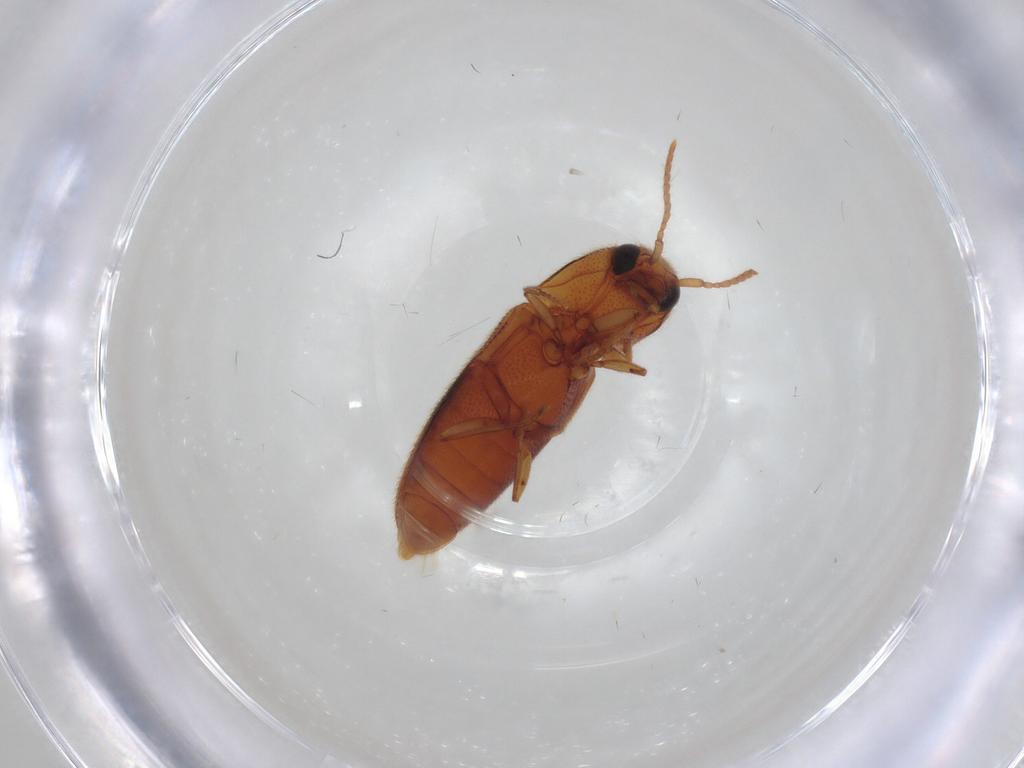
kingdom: Animalia
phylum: Arthropoda
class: Insecta
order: Coleoptera
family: Elateridae
